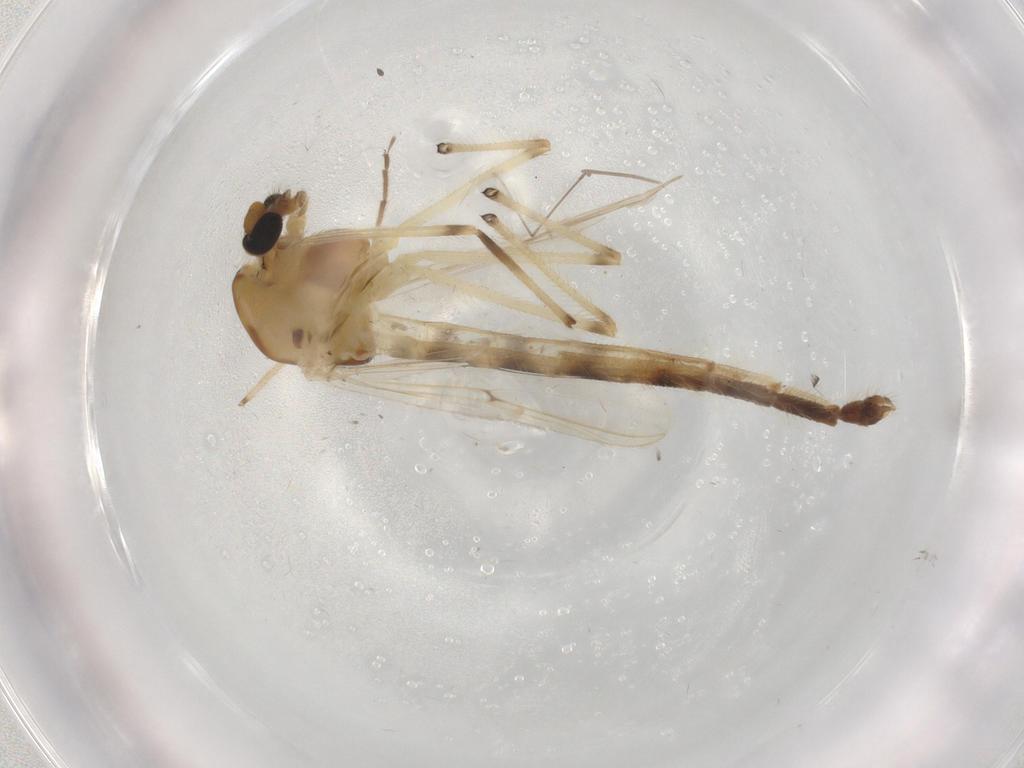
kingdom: Animalia
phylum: Arthropoda
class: Insecta
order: Diptera
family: Chironomidae
